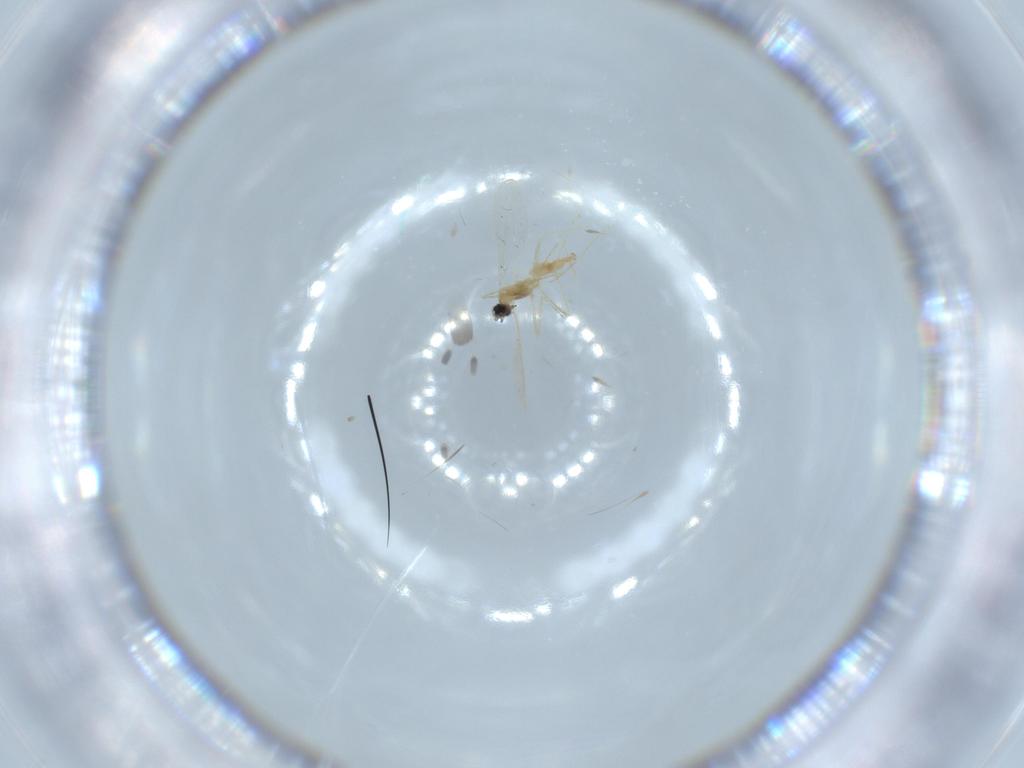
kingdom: Animalia
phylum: Arthropoda
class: Insecta
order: Diptera
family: Cecidomyiidae
